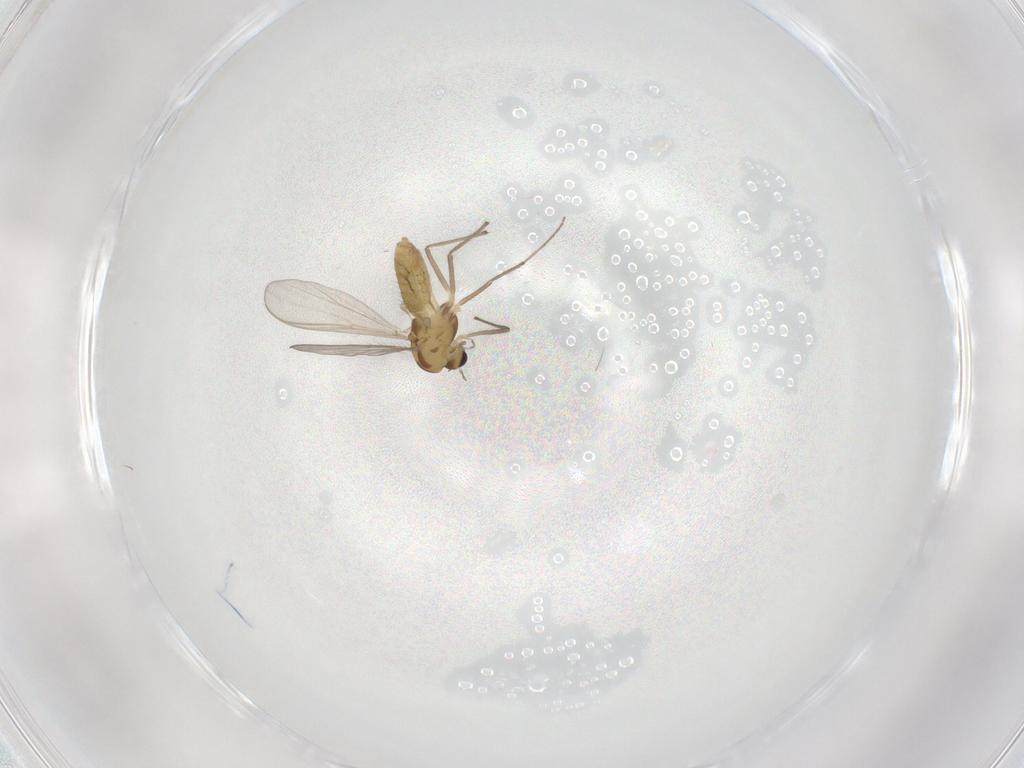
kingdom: Animalia
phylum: Arthropoda
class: Insecta
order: Diptera
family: Chironomidae
